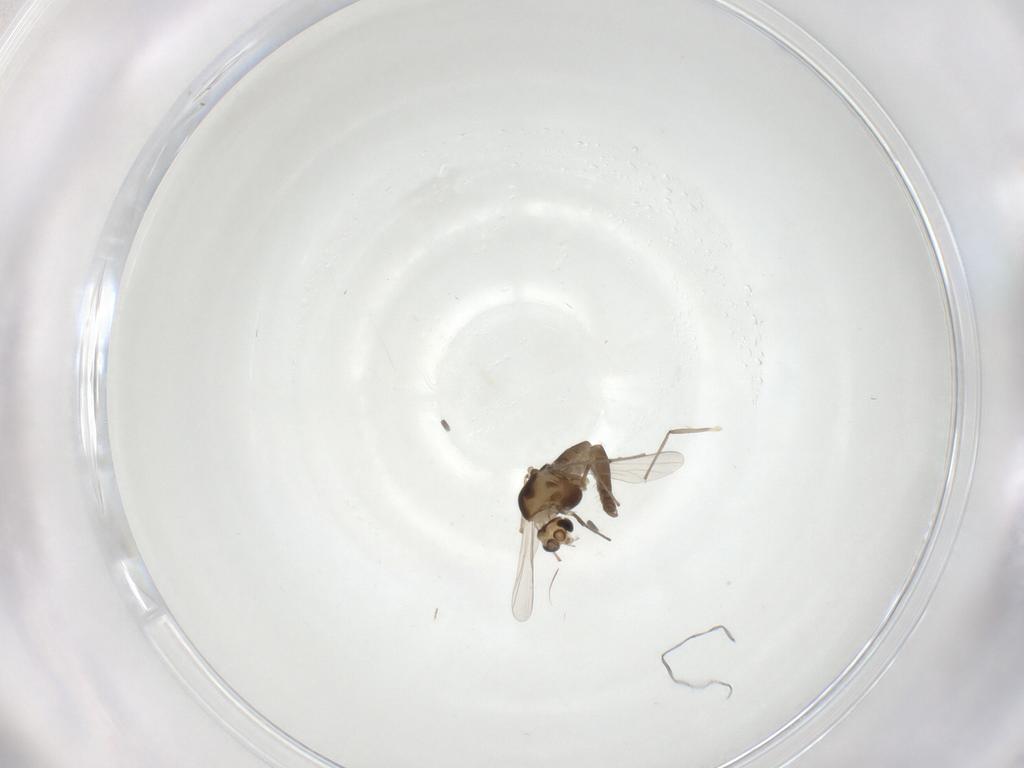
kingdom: Animalia
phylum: Arthropoda
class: Insecta
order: Diptera
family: Chironomidae
